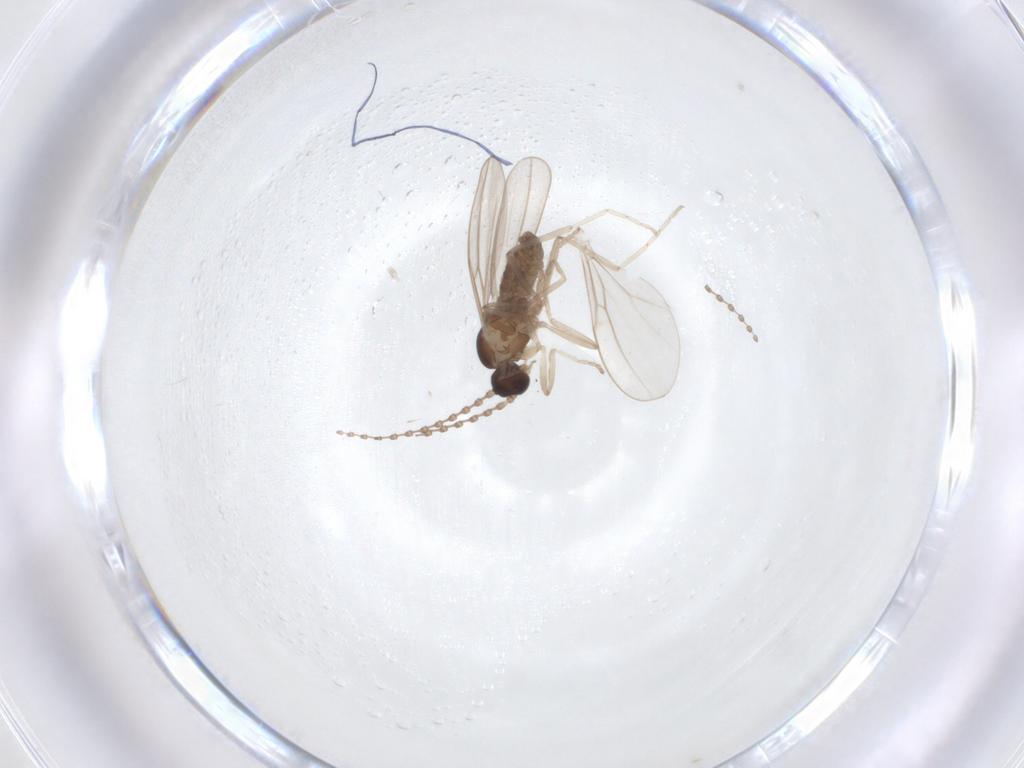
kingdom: Animalia
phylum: Arthropoda
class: Insecta
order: Diptera
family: Cecidomyiidae
